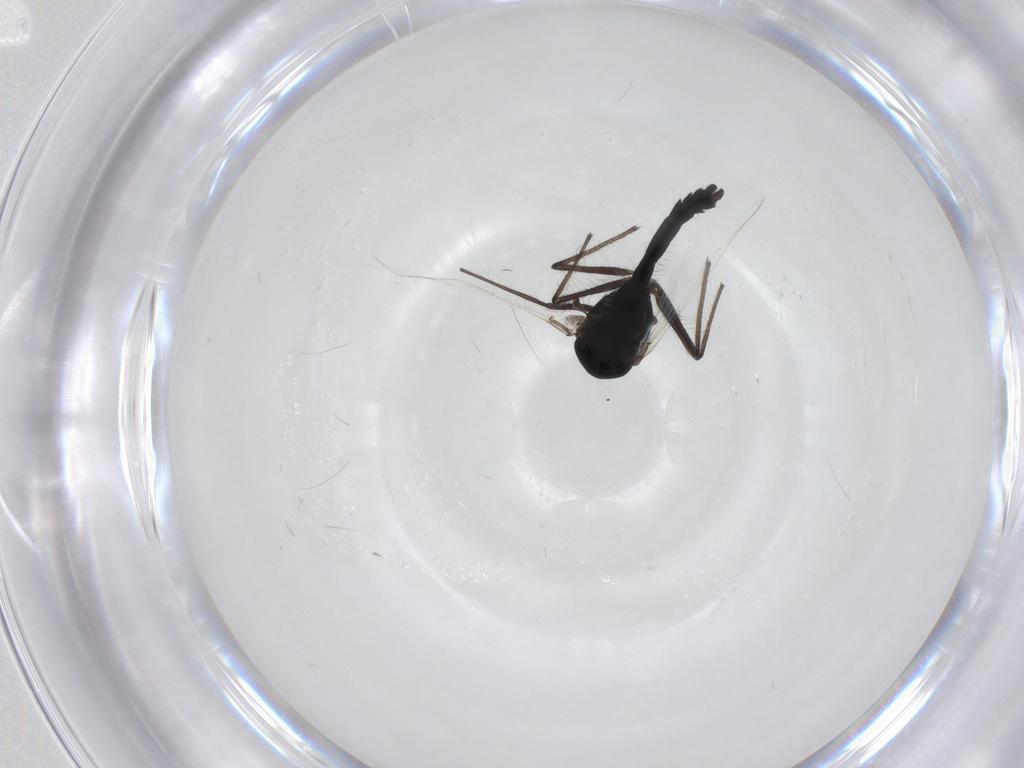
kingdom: Animalia
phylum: Arthropoda
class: Insecta
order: Diptera
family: Chironomidae
